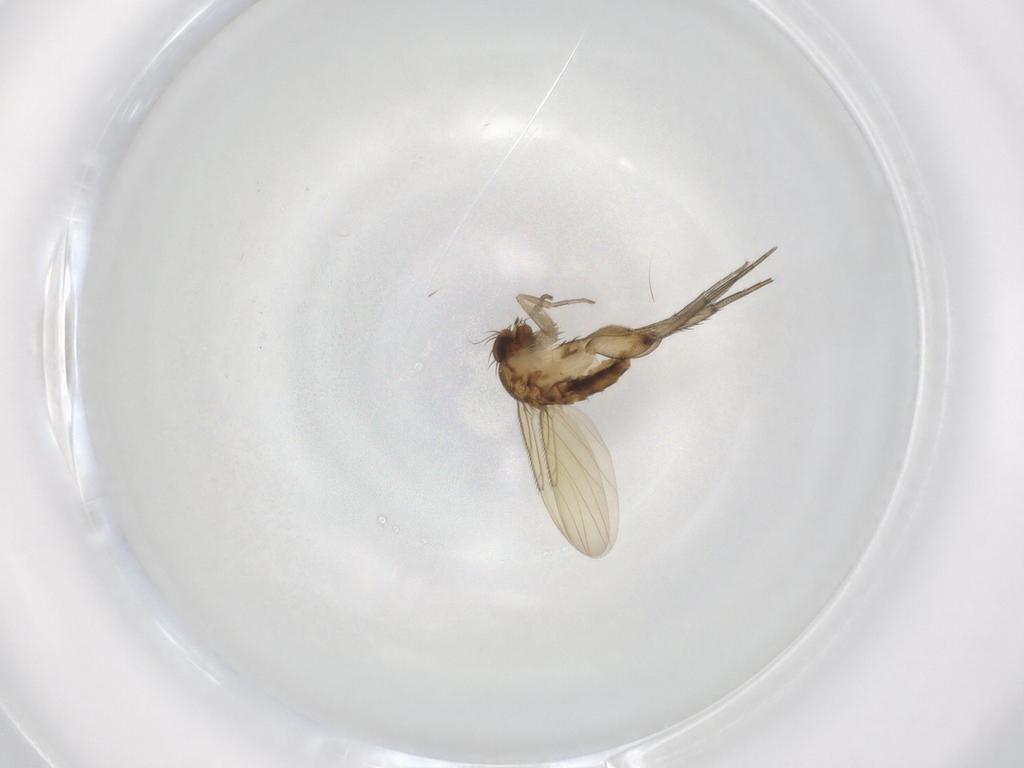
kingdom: Animalia
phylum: Arthropoda
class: Insecta
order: Diptera
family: Phoridae
